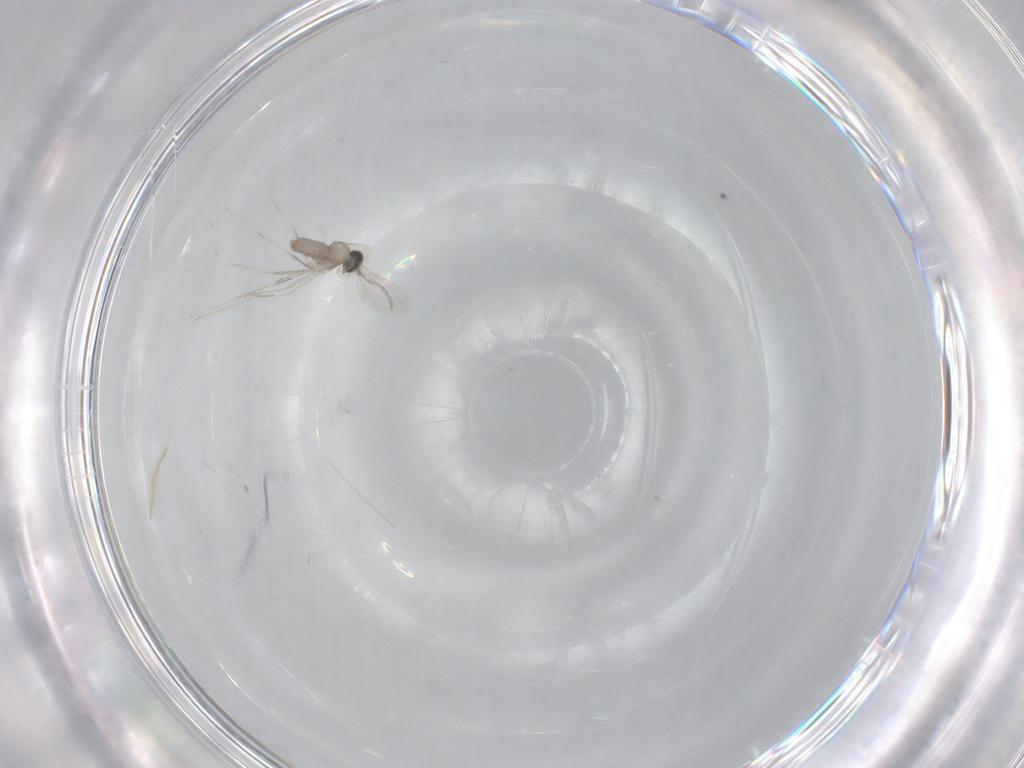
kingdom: Animalia
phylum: Arthropoda
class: Insecta
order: Diptera
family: Cecidomyiidae
